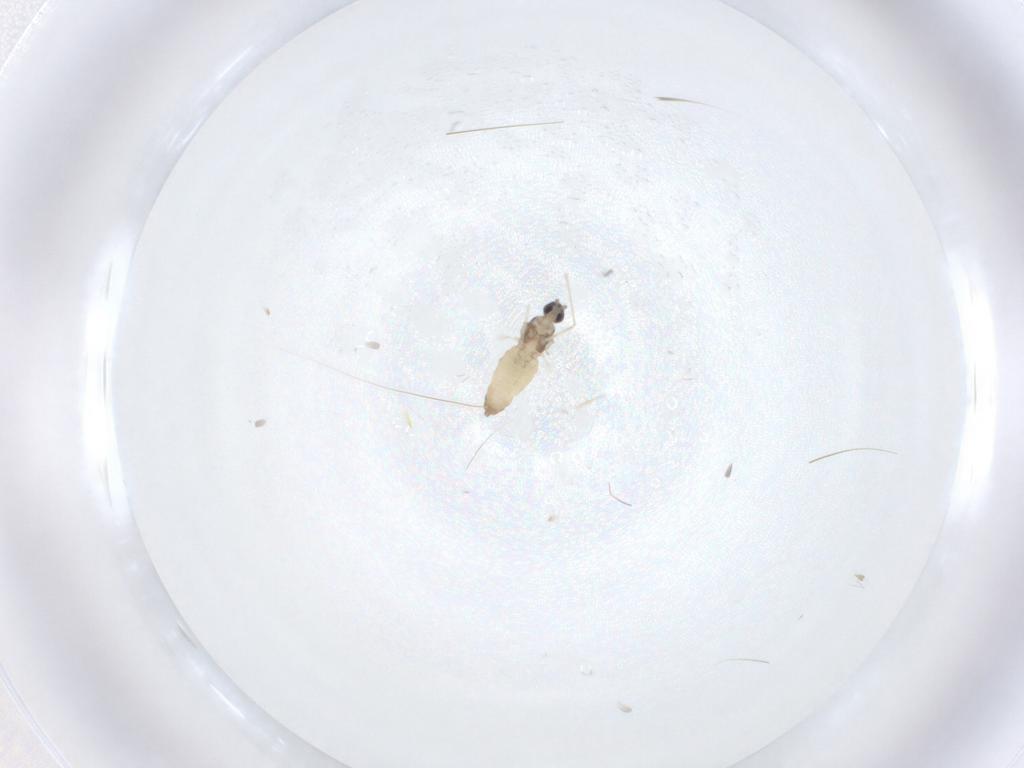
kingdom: Animalia
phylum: Arthropoda
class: Insecta
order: Diptera
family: Cecidomyiidae
